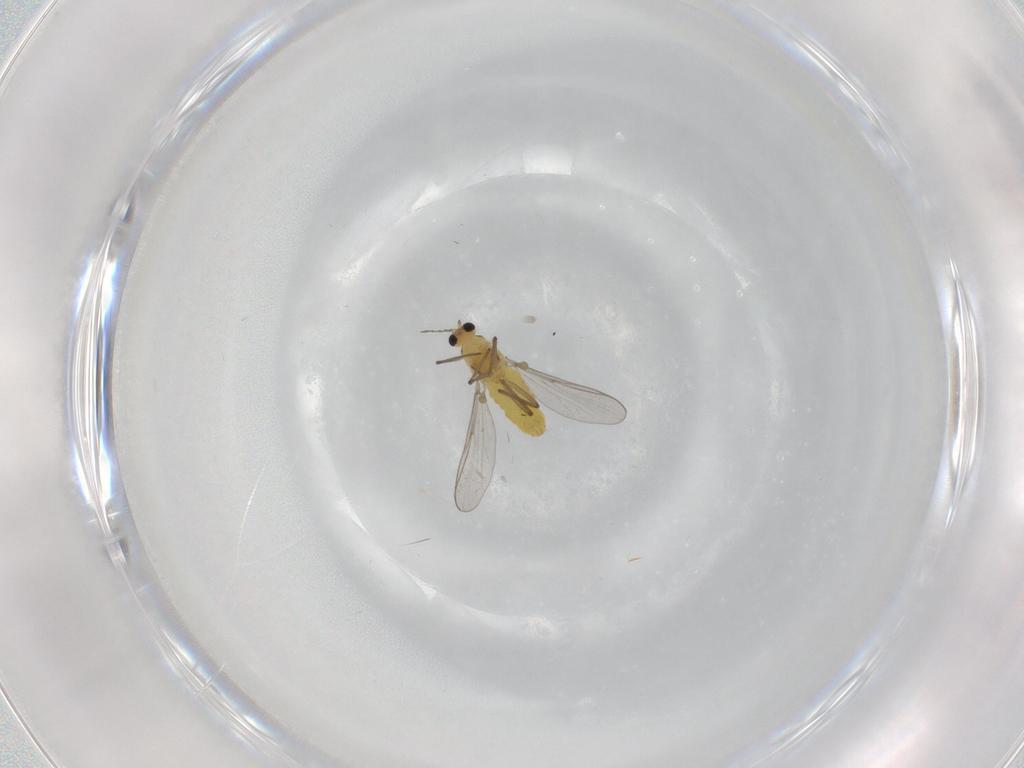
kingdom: Animalia
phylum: Arthropoda
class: Insecta
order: Diptera
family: Chironomidae
